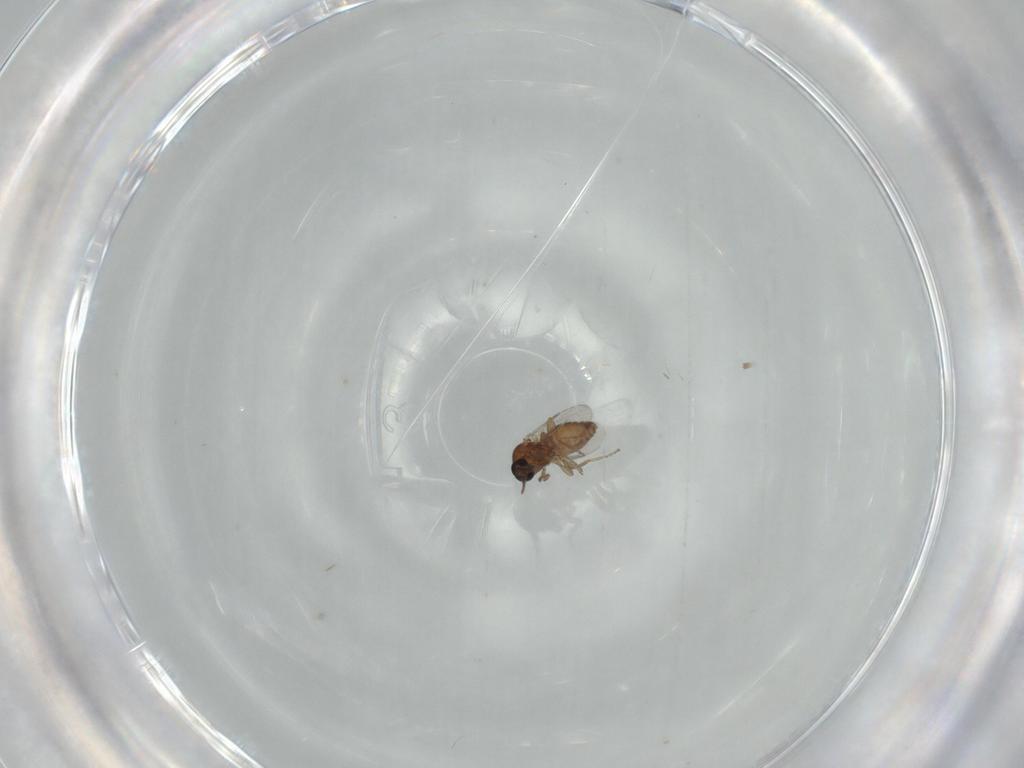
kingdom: Animalia
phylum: Arthropoda
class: Insecta
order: Diptera
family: Ceratopogonidae
